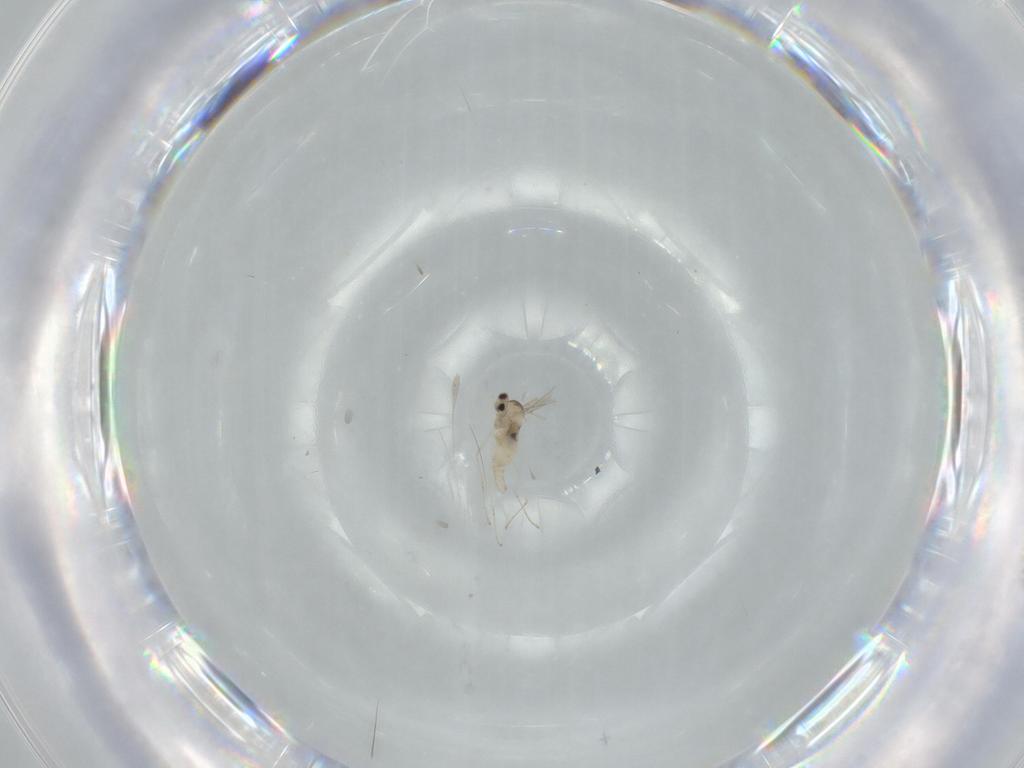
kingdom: Animalia
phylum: Arthropoda
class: Insecta
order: Diptera
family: Cecidomyiidae
